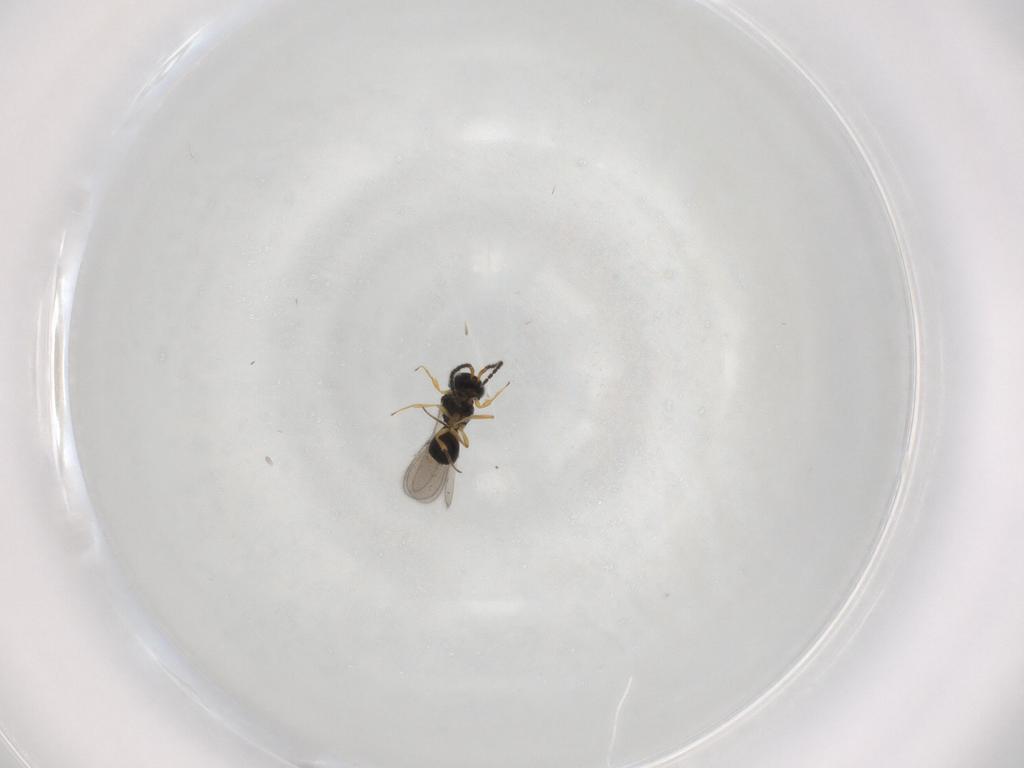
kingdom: Animalia
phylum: Arthropoda
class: Insecta
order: Hymenoptera
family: Scelionidae
